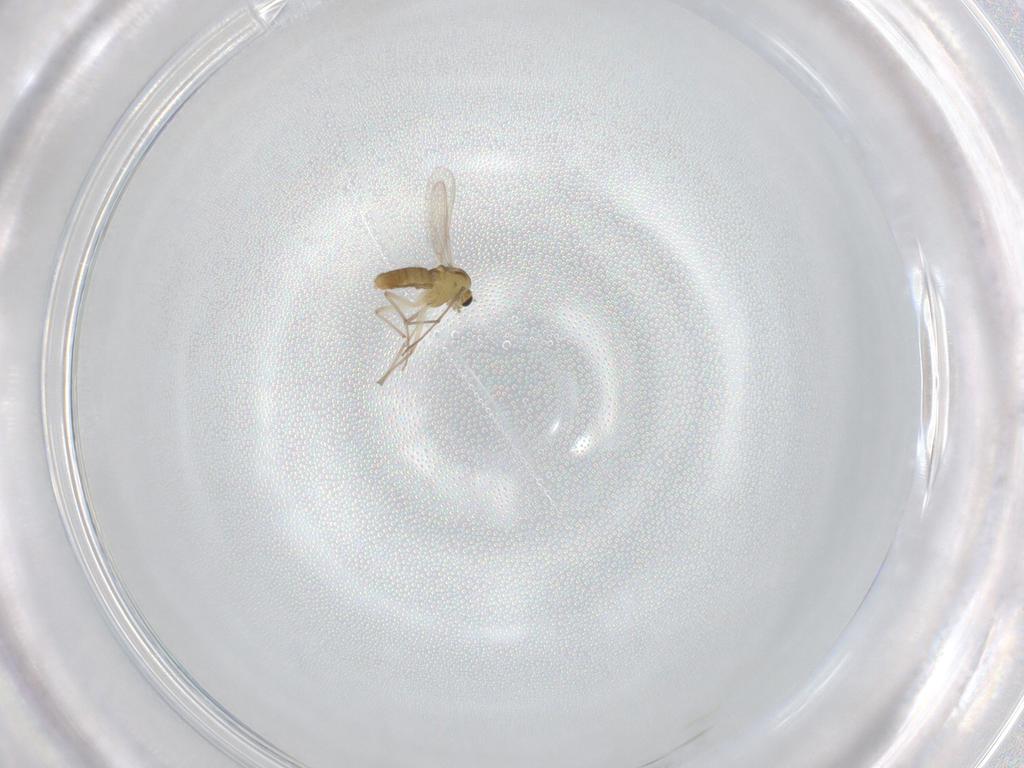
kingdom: Animalia
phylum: Arthropoda
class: Insecta
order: Diptera
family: Chironomidae
